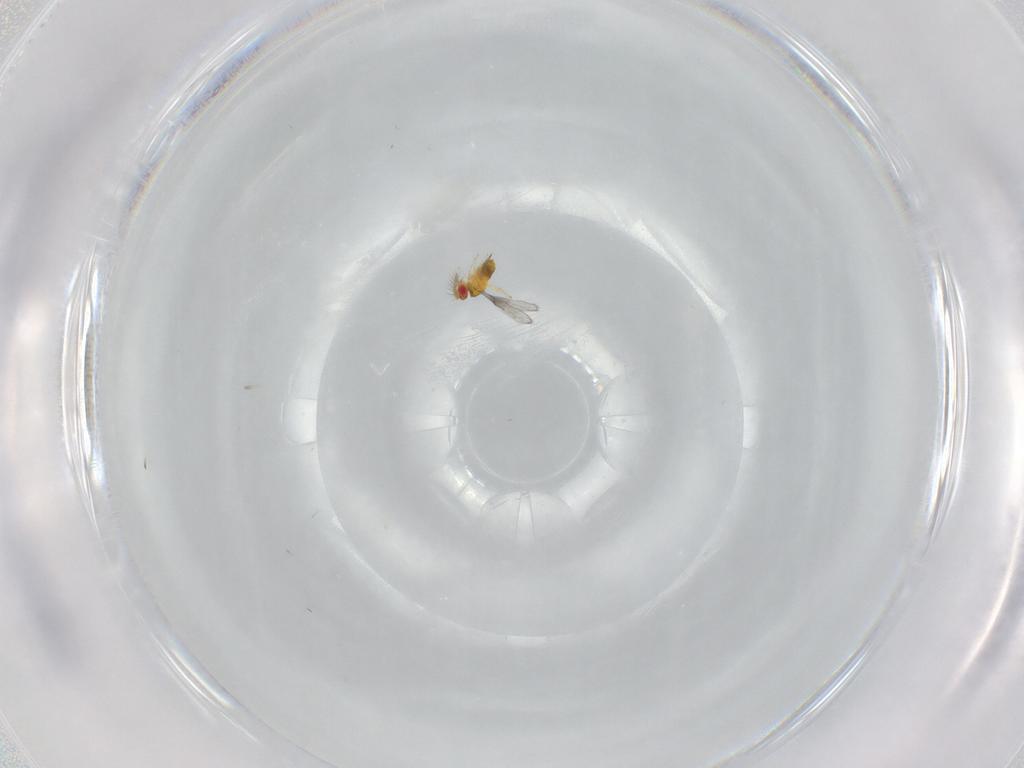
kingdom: Animalia
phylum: Arthropoda
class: Insecta
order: Hymenoptera
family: Trichogrammatidae
